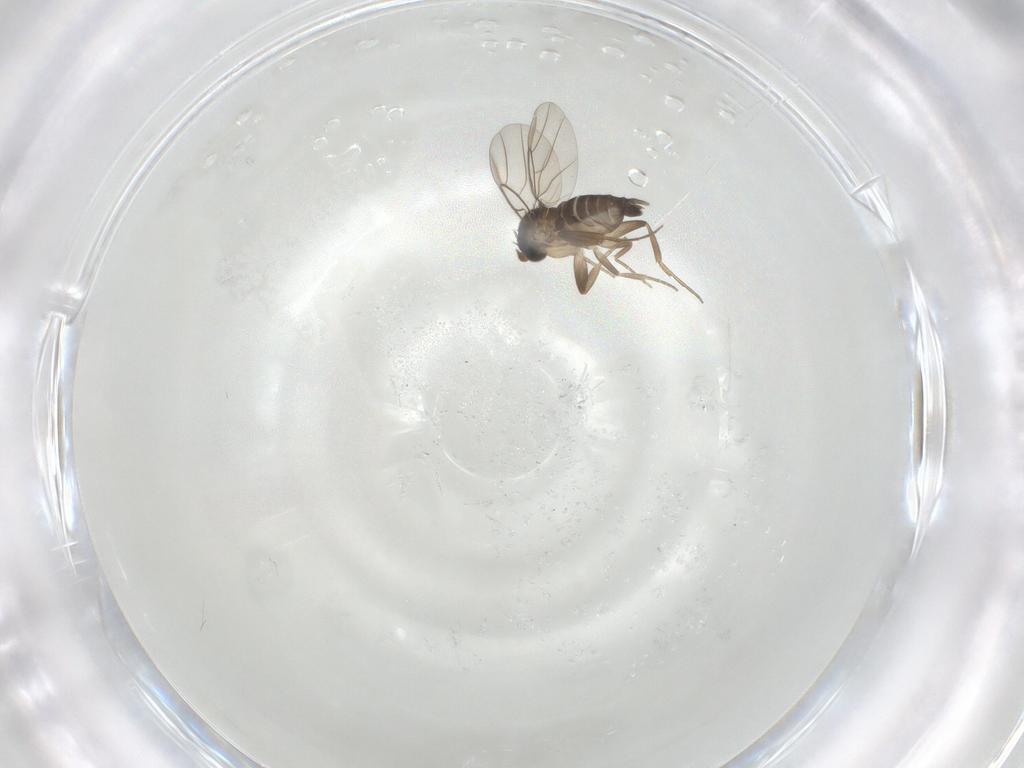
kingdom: Animalia
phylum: Arthropoda
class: Insecta
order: Diptera
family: Phoridae
